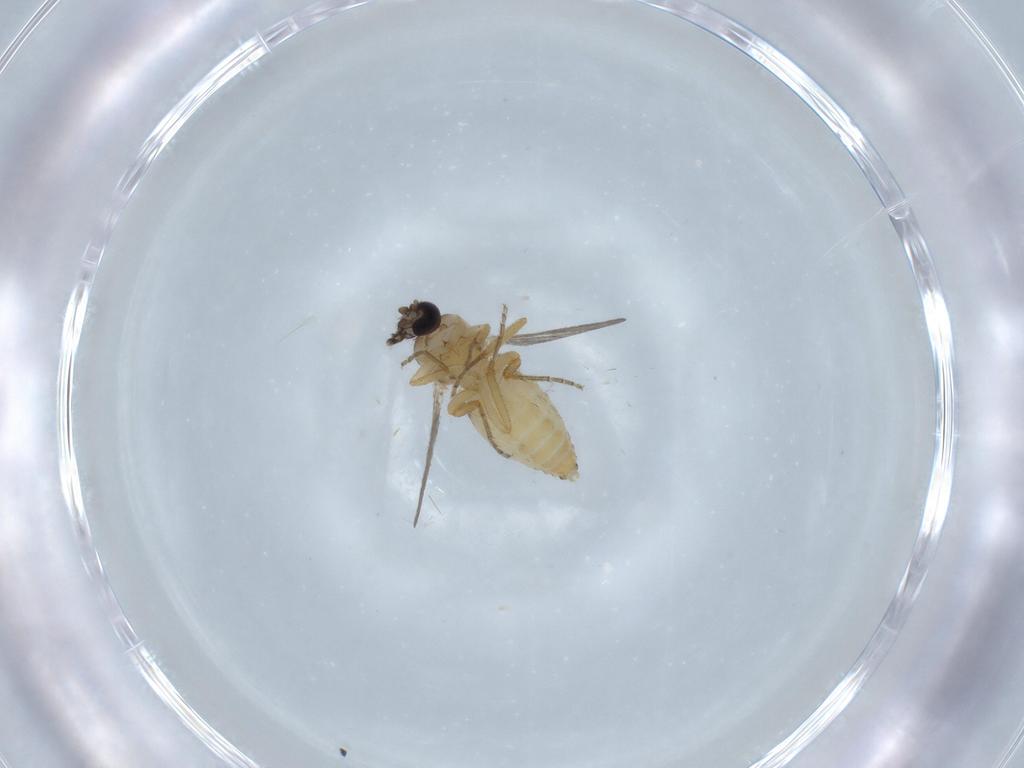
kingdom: Animalia
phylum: Arthropoda
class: Insecta
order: Diptera
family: Ceratopogonidae
